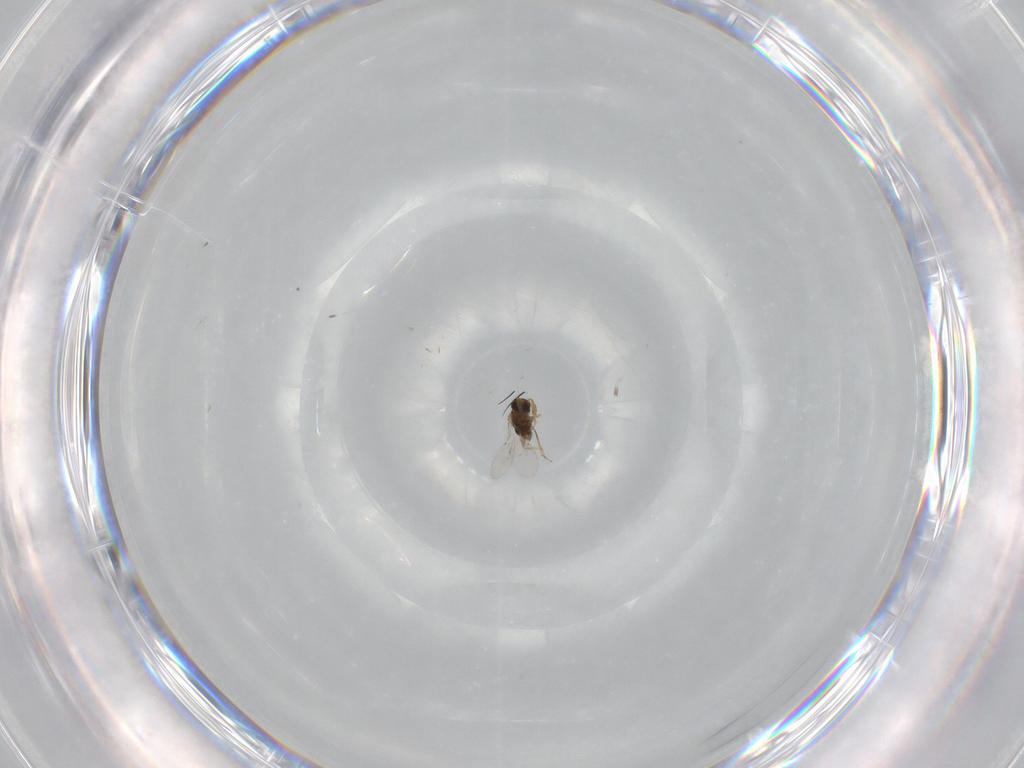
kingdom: Animalia
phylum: Arthropoda
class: Insecta
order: Hymenoptera
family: Encyrtidae
